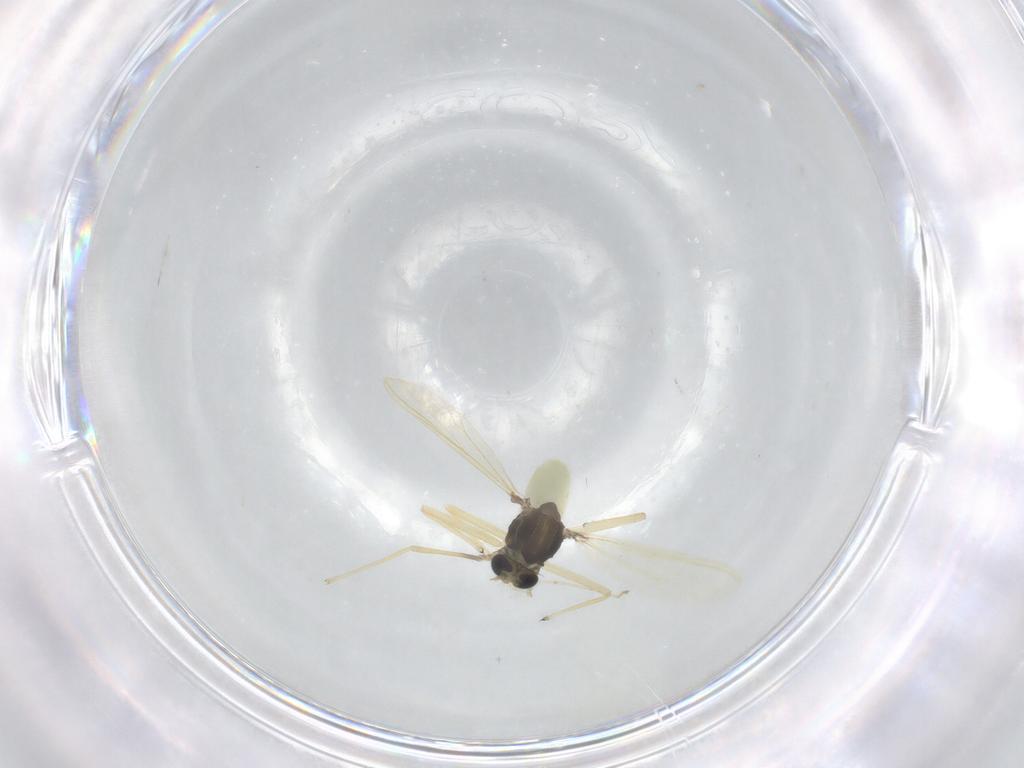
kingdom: Animalia
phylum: Arthropoda
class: Insecta
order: Diptera
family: Chironomidae
